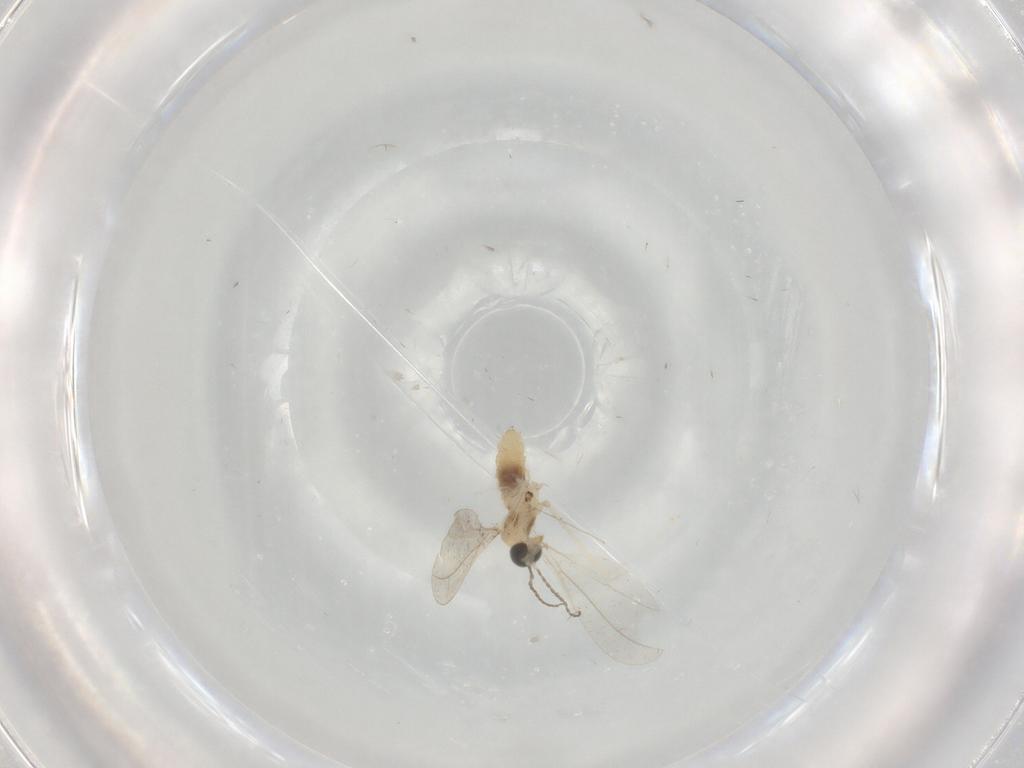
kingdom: Animalia
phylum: Arthropoda
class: Insecta
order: Diptera
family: Cecidomyiidae
